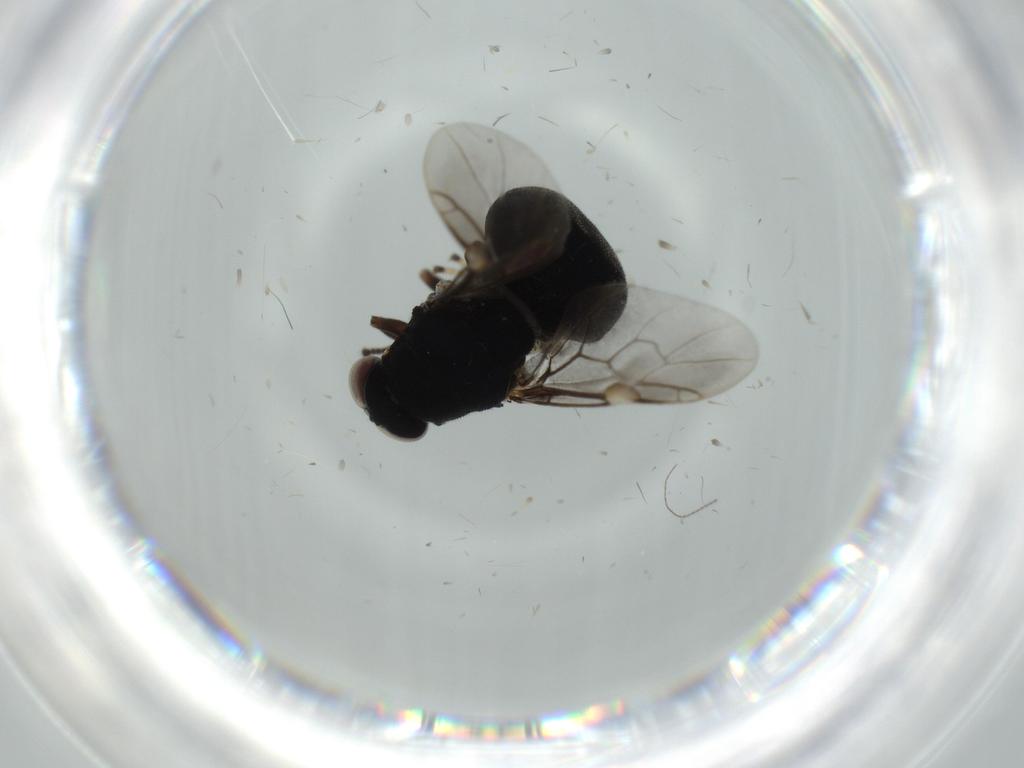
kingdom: Animalia
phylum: Arthropoda
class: Insecta
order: Diptera
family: Stratiomyidae
